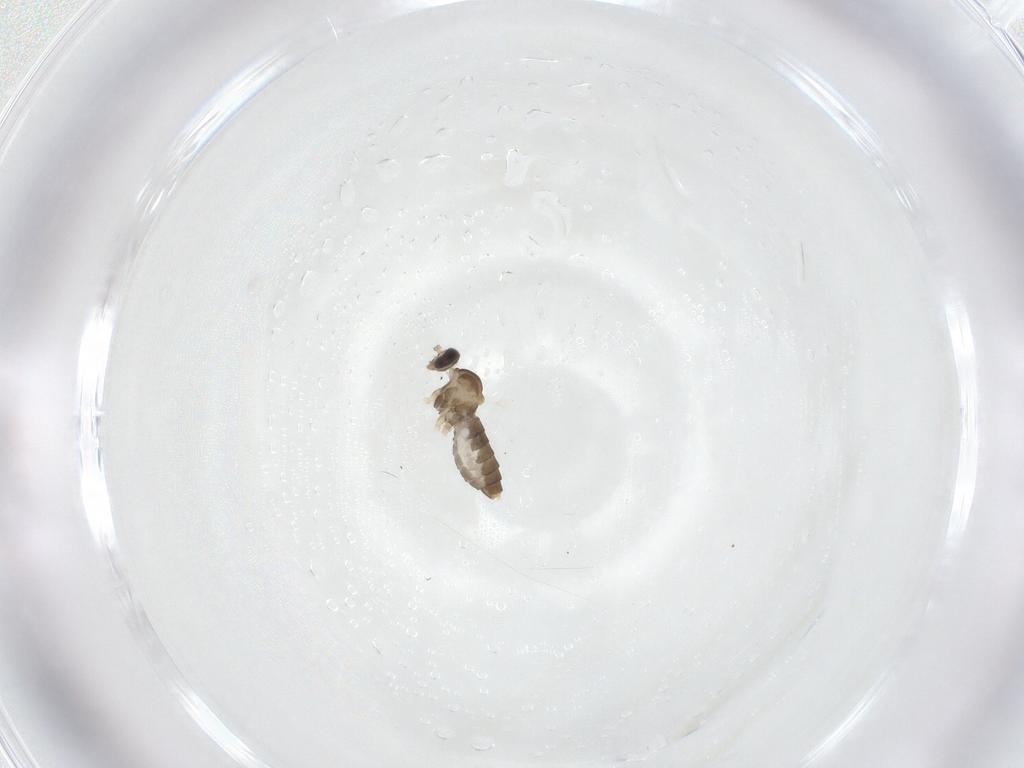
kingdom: Animalia
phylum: Arthropoda
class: Insecta
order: Diptera
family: Cecidomyiidae
